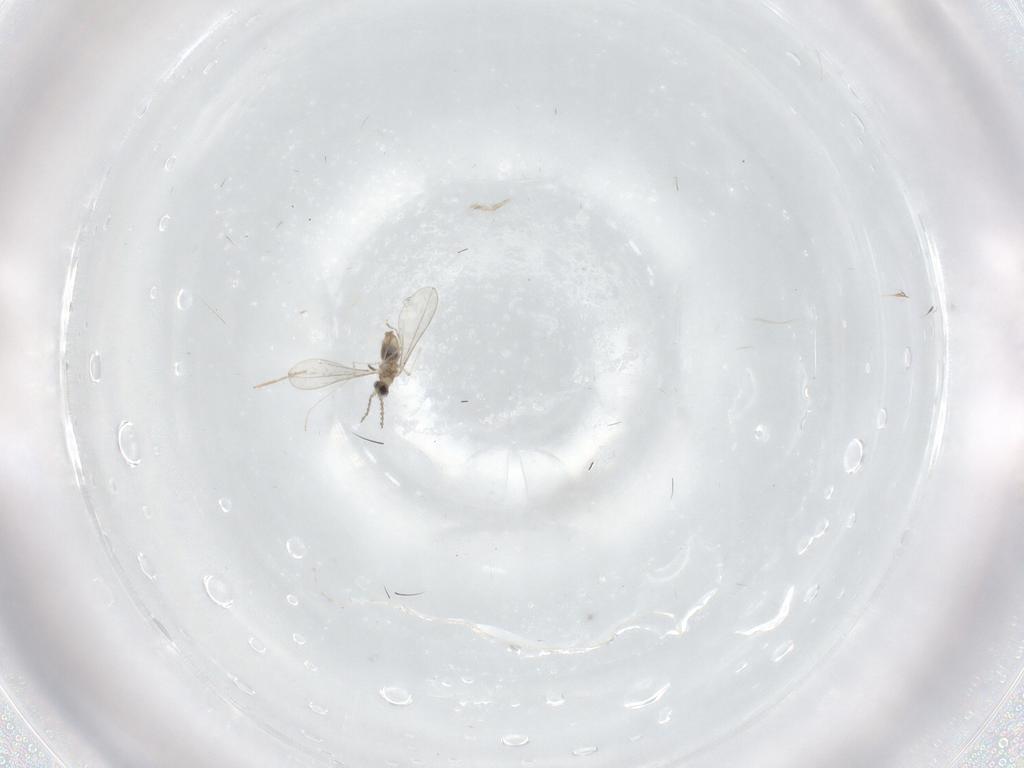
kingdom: Animalia
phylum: Arthropoda
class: Insecta
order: Diptera
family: Cecidomyiidae
